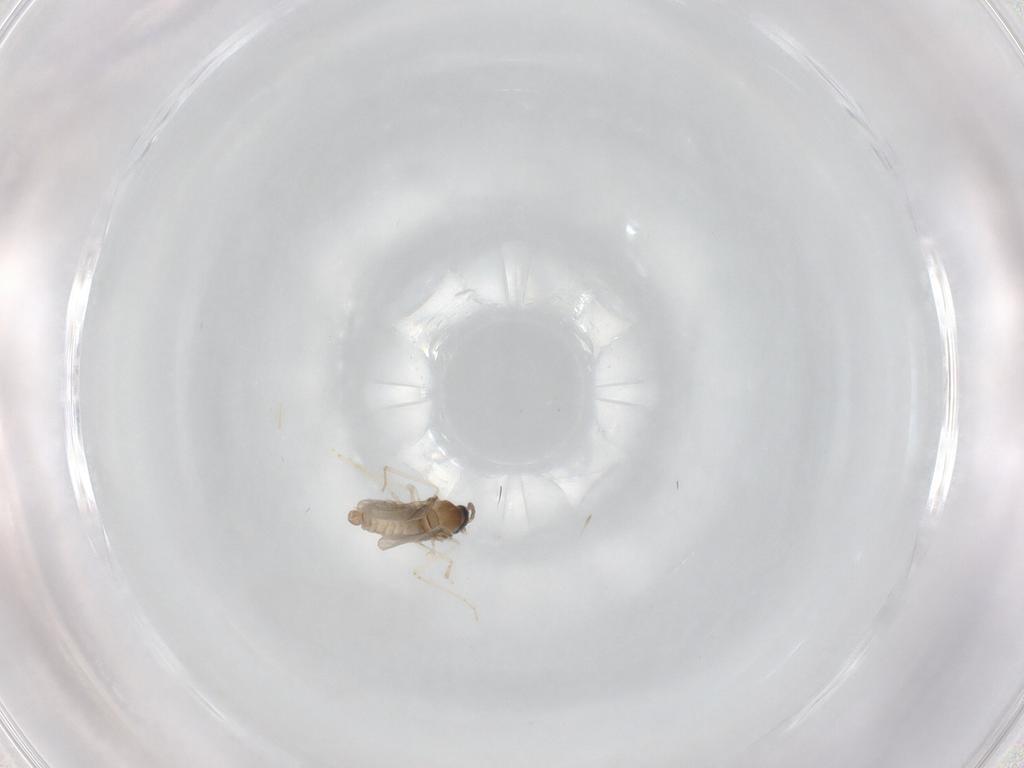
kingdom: Animalia
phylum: Arthropoda
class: Insecta
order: Diptera
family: Cecidomyiidae
